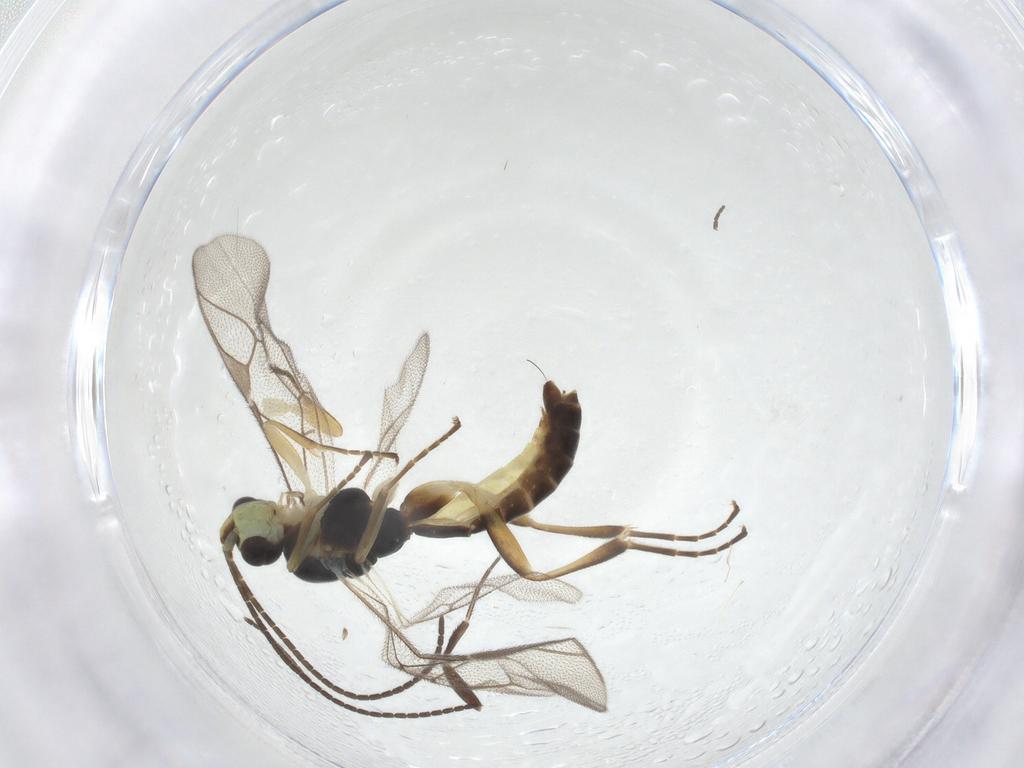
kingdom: Animalia
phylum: Arthropoda
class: Insecta
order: Hymenoptera
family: Ichneumonidae
